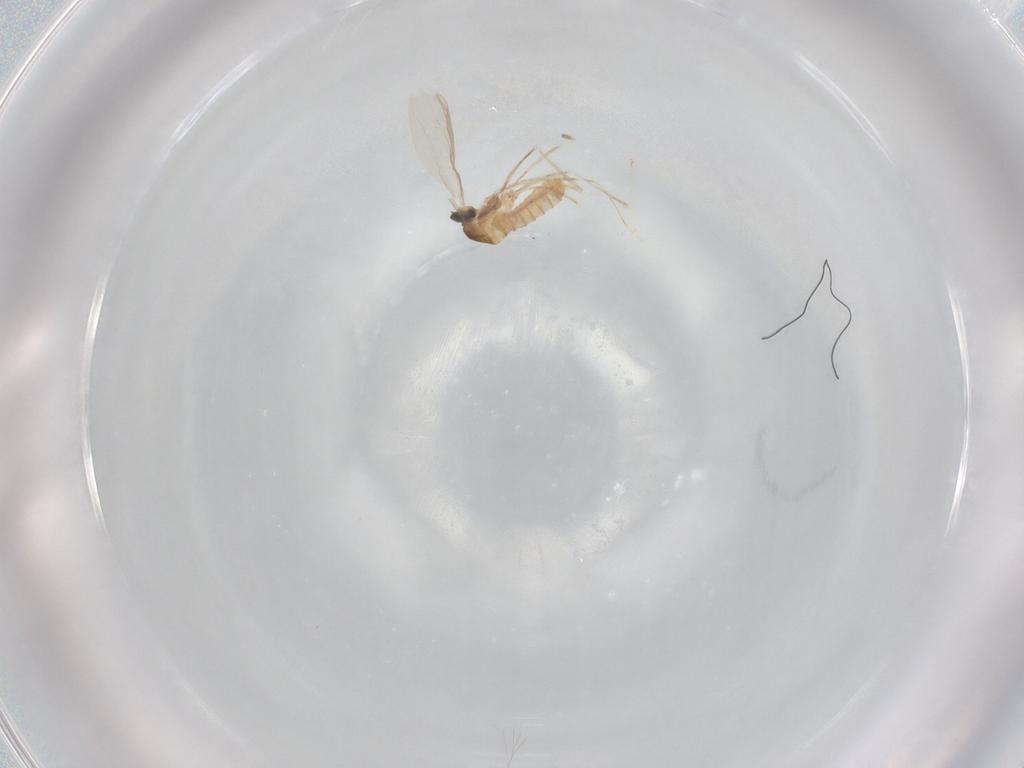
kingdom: Animalia
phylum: Arthropoda
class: Insecta
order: Diptera
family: Cecidomyiidae
